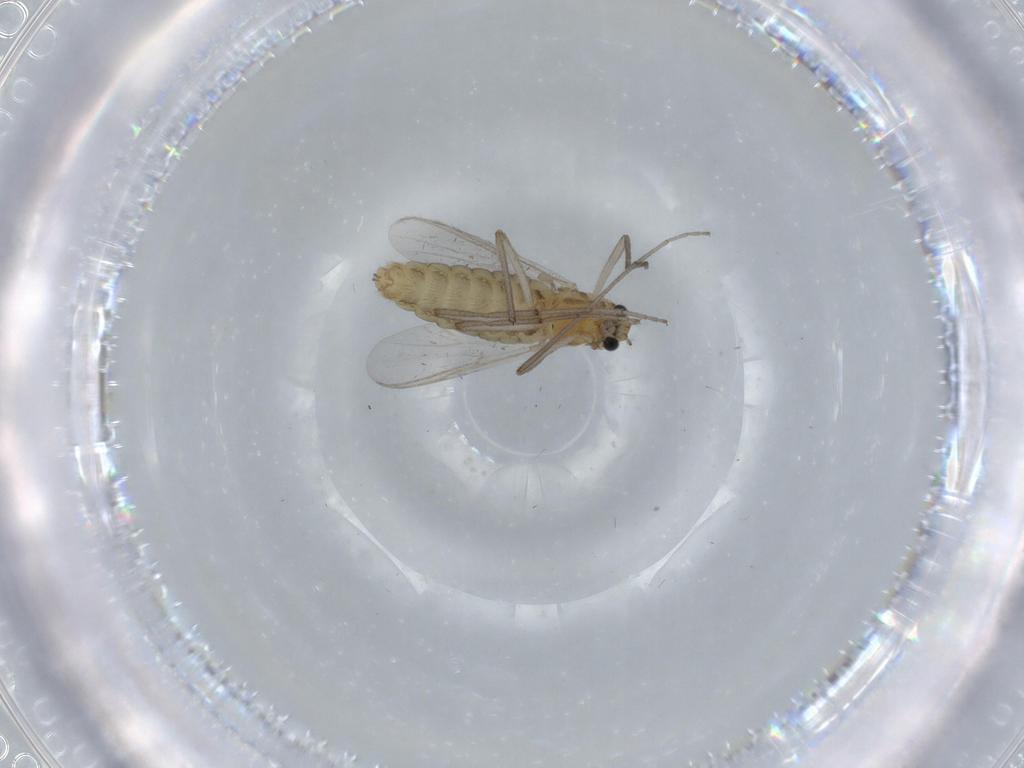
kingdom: Animalia
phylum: Arthropoda
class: Insecta
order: Diptera
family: Chironomidae
